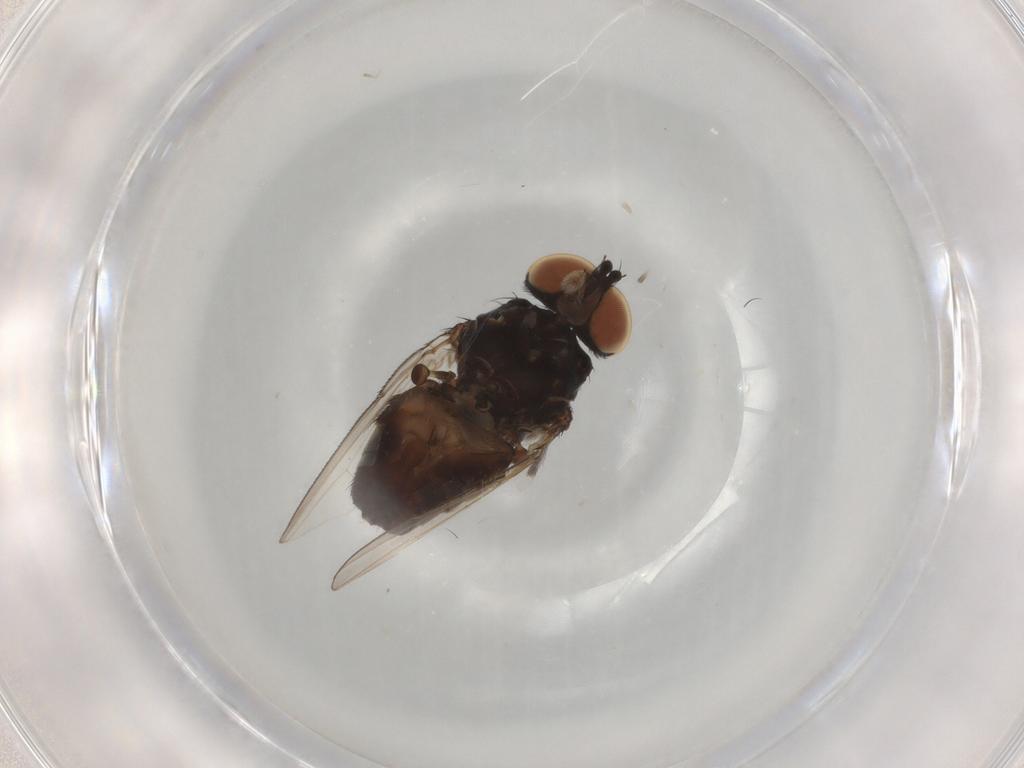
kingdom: Animalia
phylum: Arthropoda
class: Insecta
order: Diptera
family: Milichiidae
